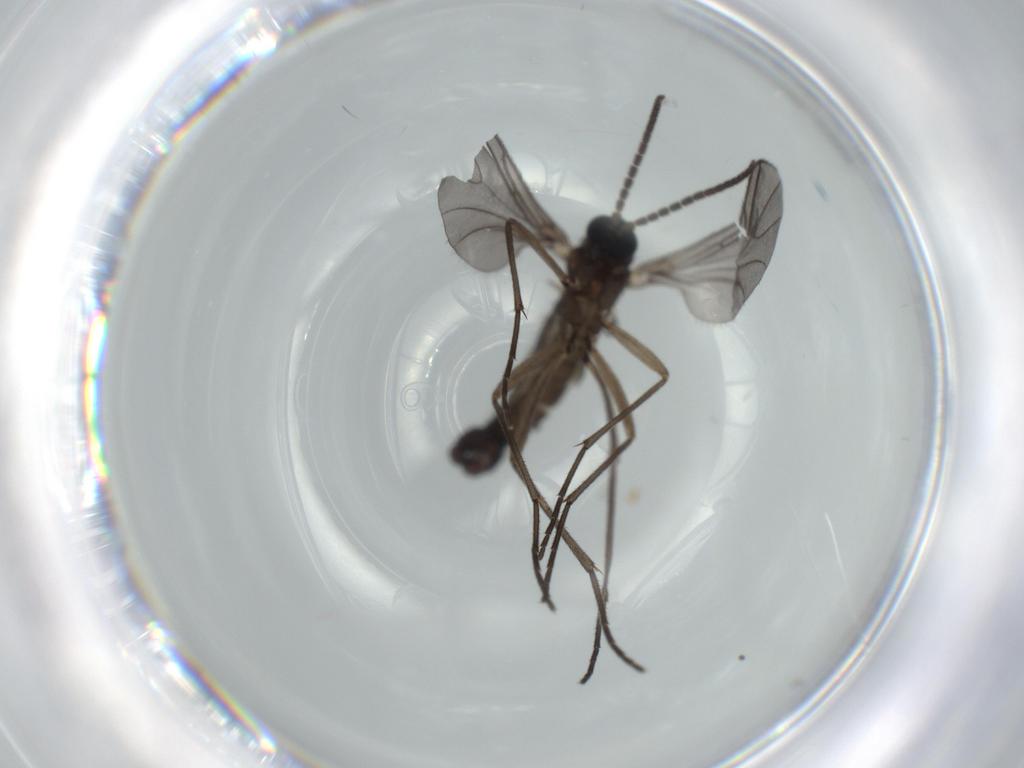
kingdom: Animalia
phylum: Arthropoda
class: Insecta
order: Diptera
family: Sciaridae
